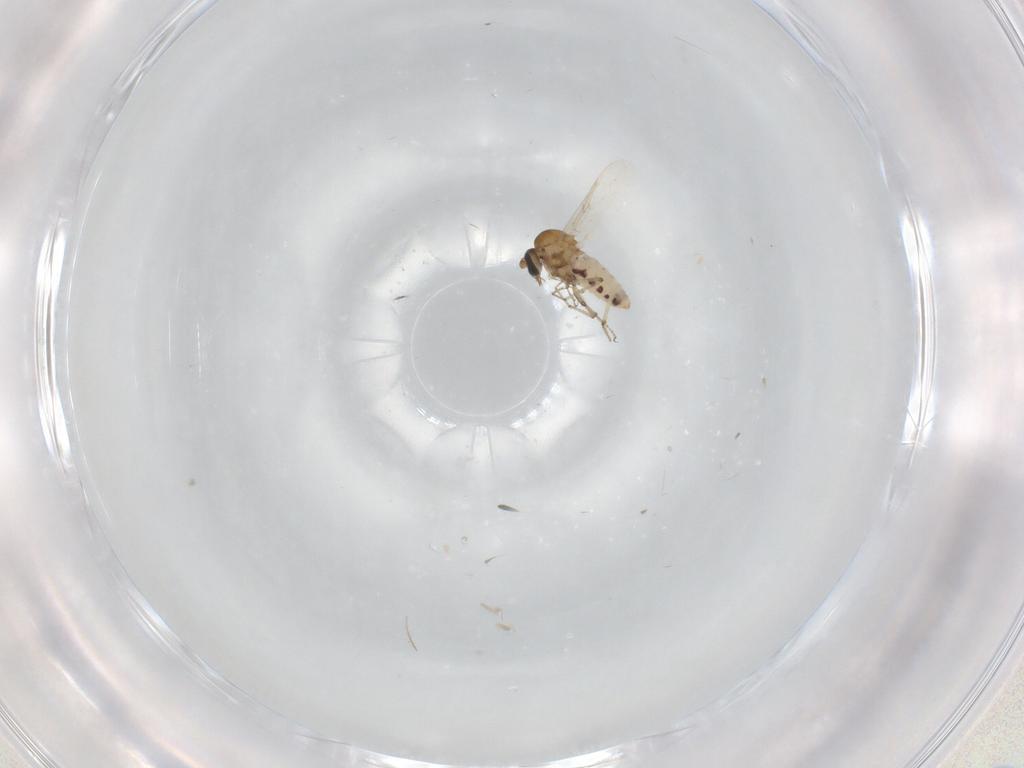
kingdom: Animalia
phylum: Arthropoda
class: Insecta
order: Diptera
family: Ceratopogonidae
